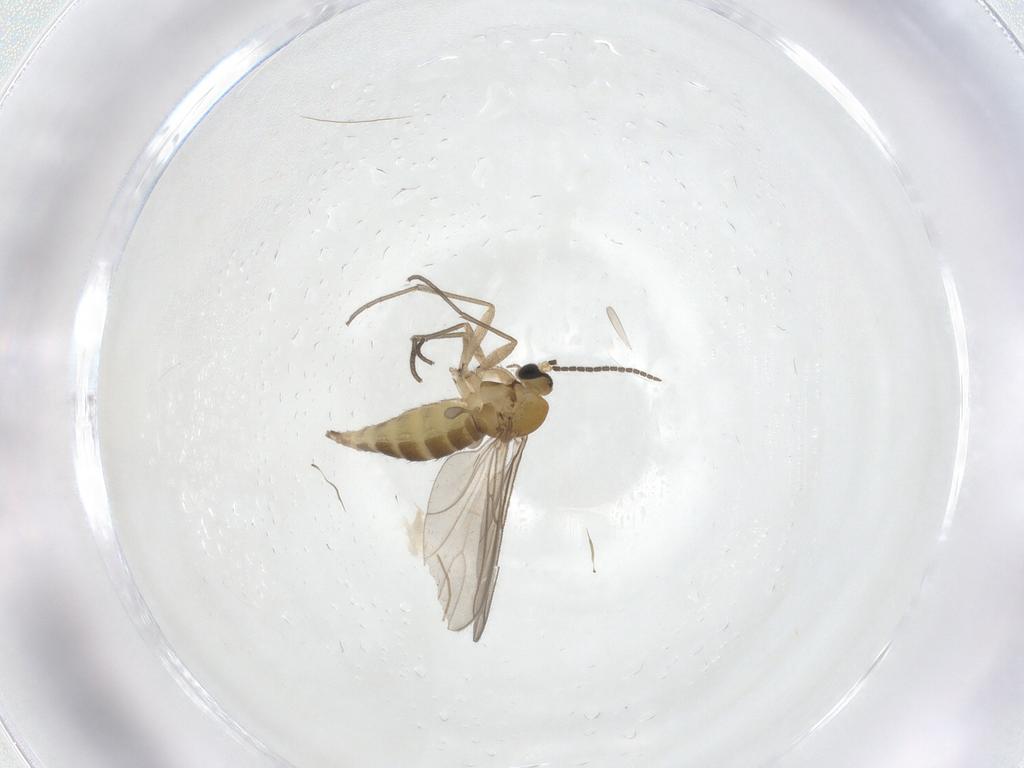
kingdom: Animalia
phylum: Arthropoda
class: Insecta
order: Diptera
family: Sciaridae
